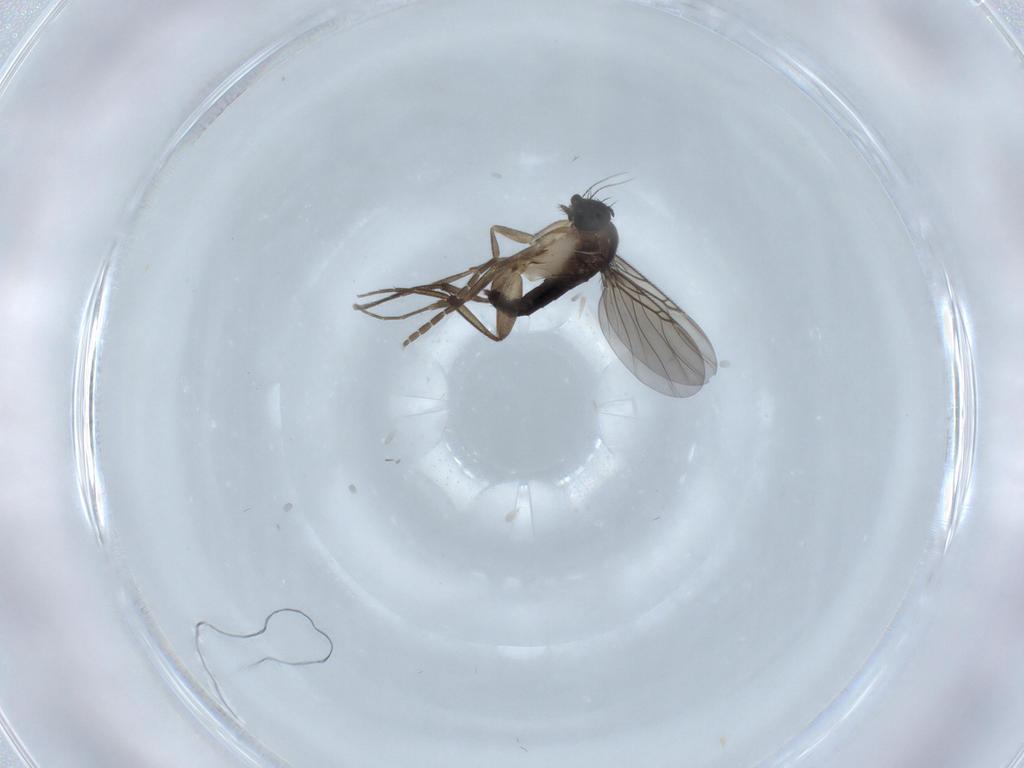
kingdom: Animalia
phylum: Arthropoda
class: Insecta
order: Diptera
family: Phoridae
